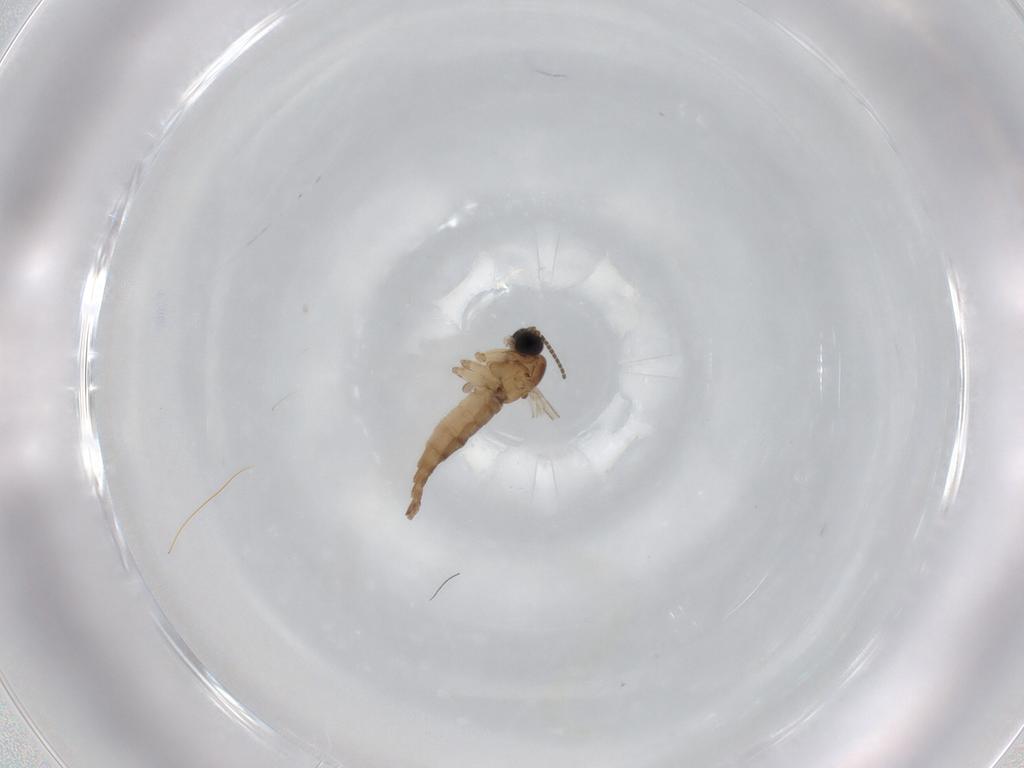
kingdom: Animalia
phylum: Arthropoda
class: Insecta
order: Diptera
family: Sciaridae
